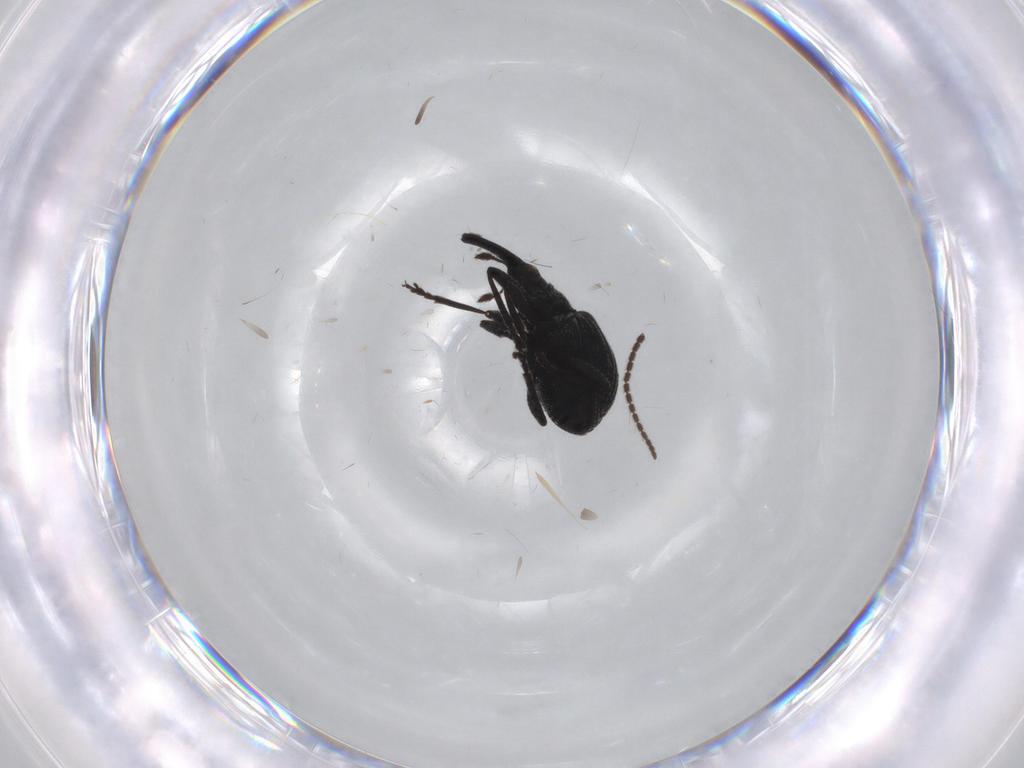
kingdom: Animalia
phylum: Arthropoda
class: Insecta
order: Coleoptera
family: Brentidae
